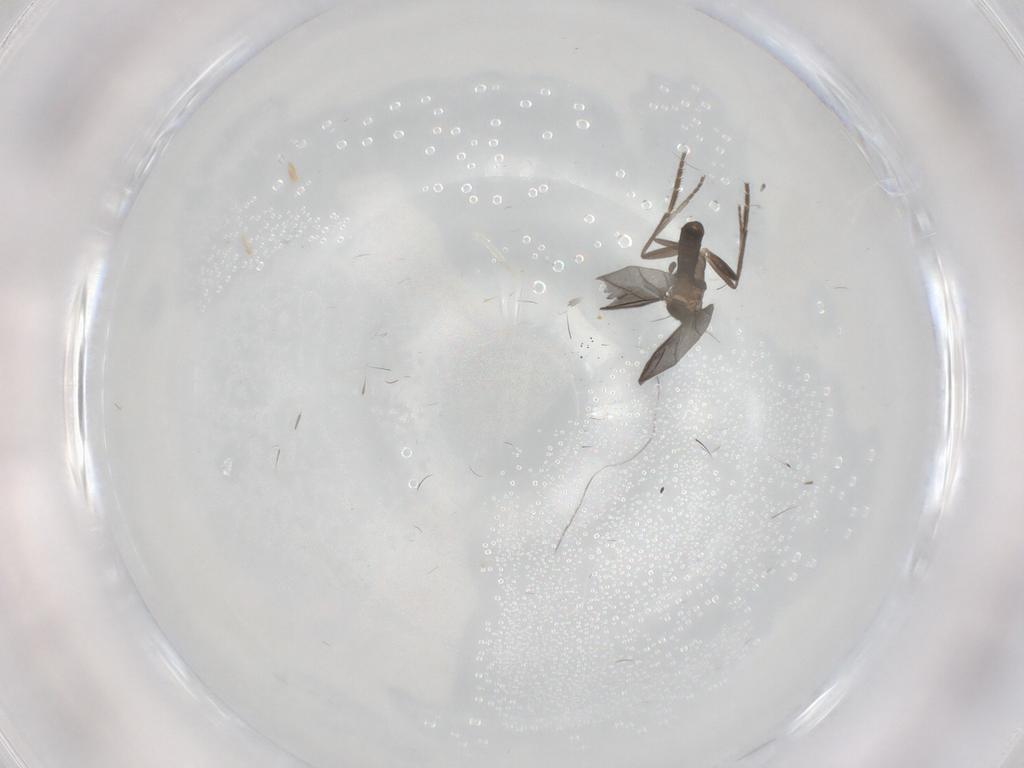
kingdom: Animalia
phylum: Arthropoda
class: Insecta
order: Diptera
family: Phoridae
